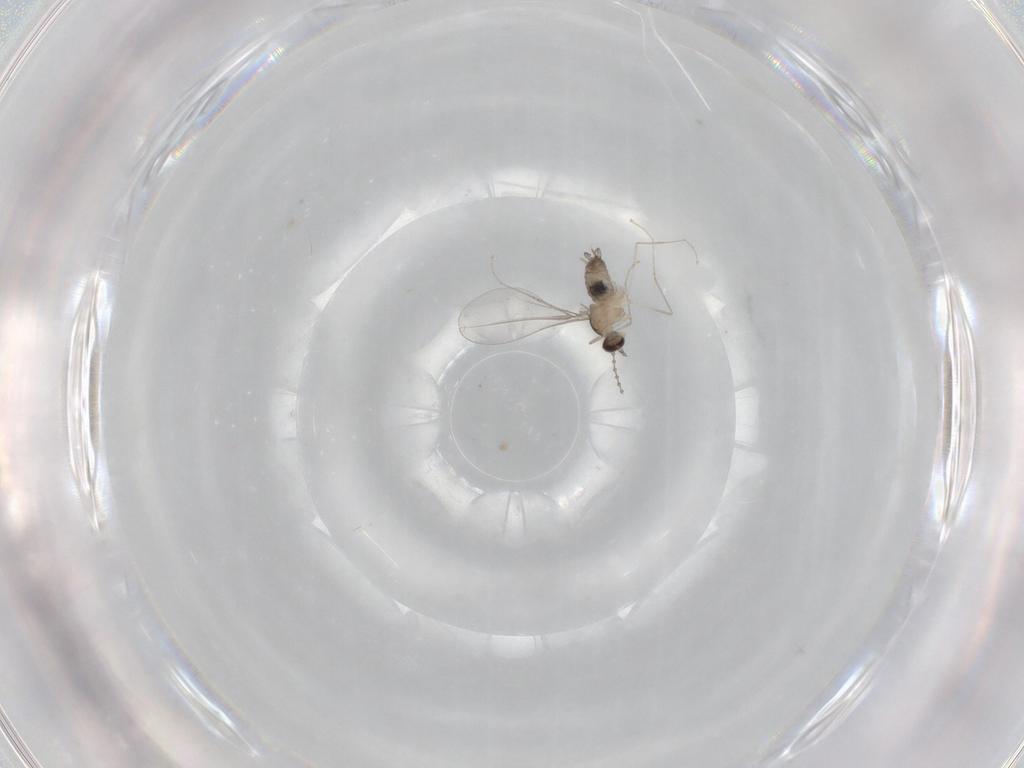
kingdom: Animalia
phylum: Arthropoda
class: Insecta
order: Diptera
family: Cecidomyiidae
